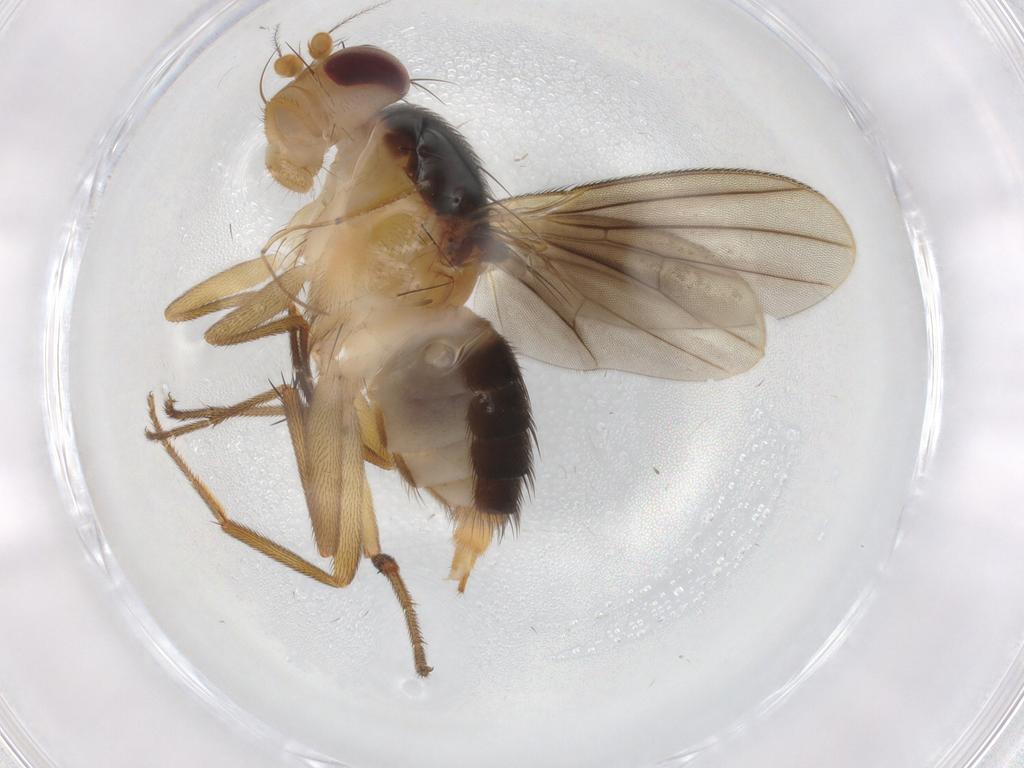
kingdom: Animalia
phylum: Arthropoda
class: Insecta
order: Diptera
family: Clusiidae
